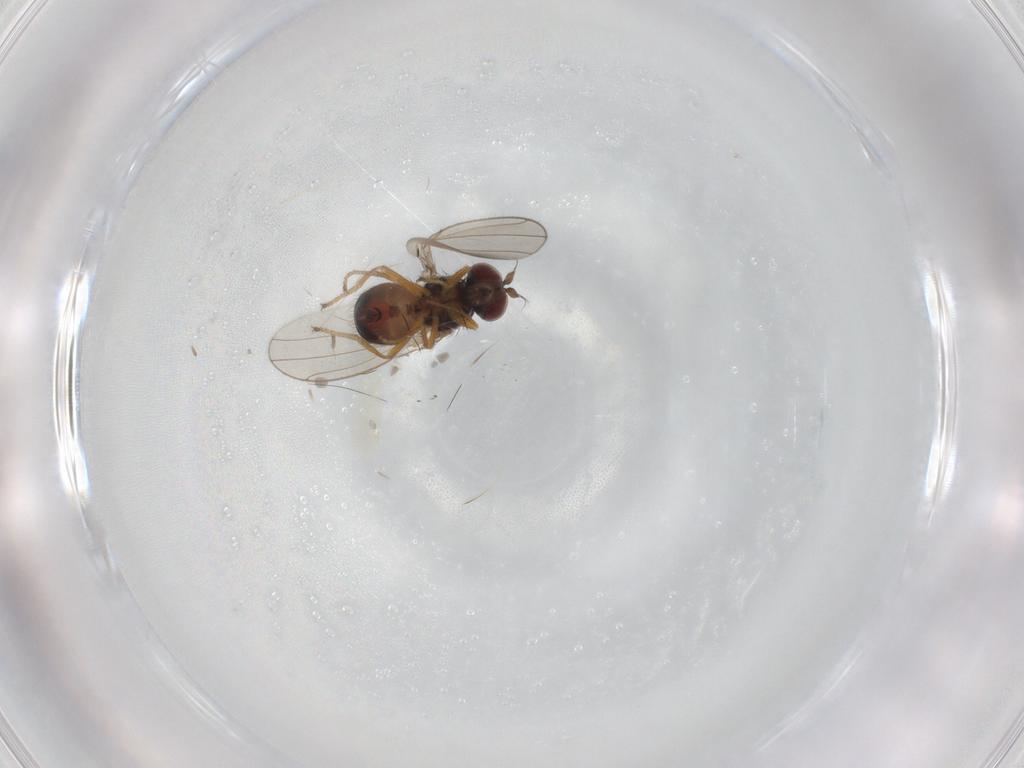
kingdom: Animalia
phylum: Arthropoda
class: Insecta
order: Diptera
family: Ephydridae
